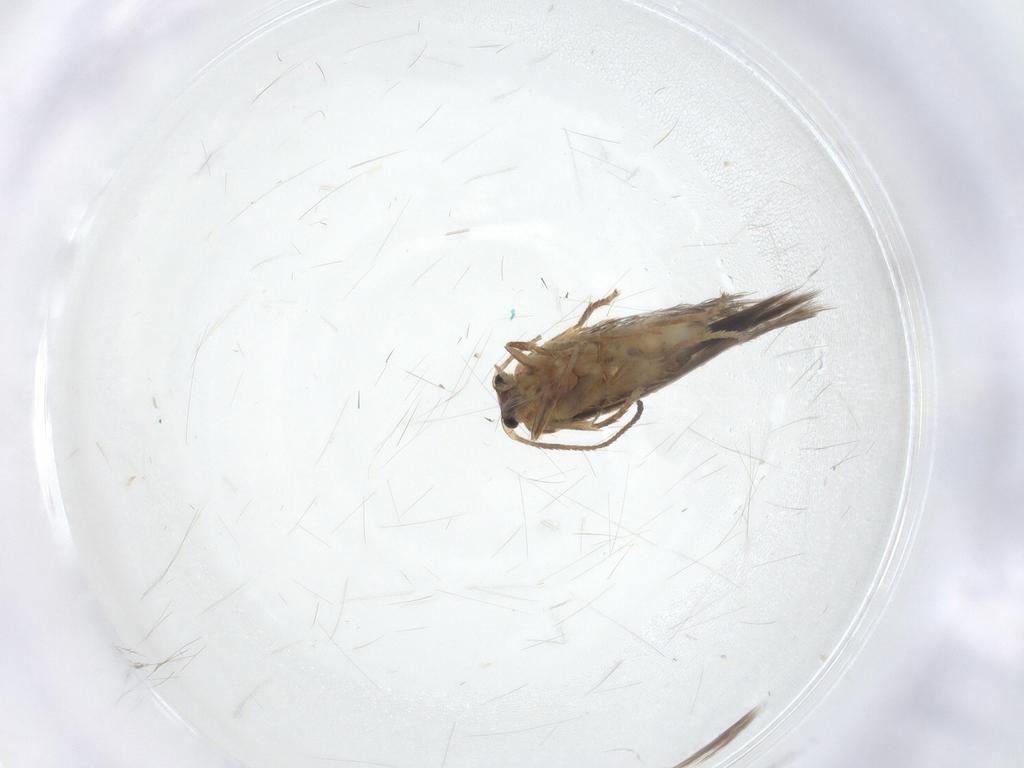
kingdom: Animalia
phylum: Arthropoda
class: Insecta
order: Lepidoptera
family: Nepticulidae
